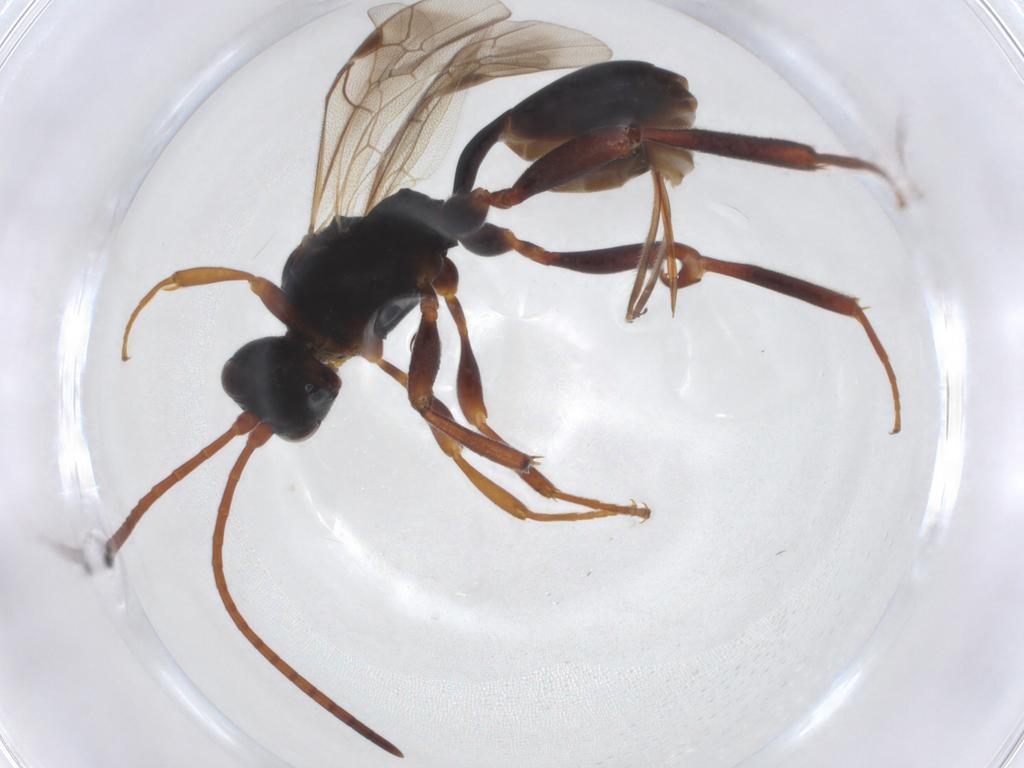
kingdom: Animalia
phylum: Arthropoda
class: Insecta
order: Hymenoptera
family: Ichneumonidae
